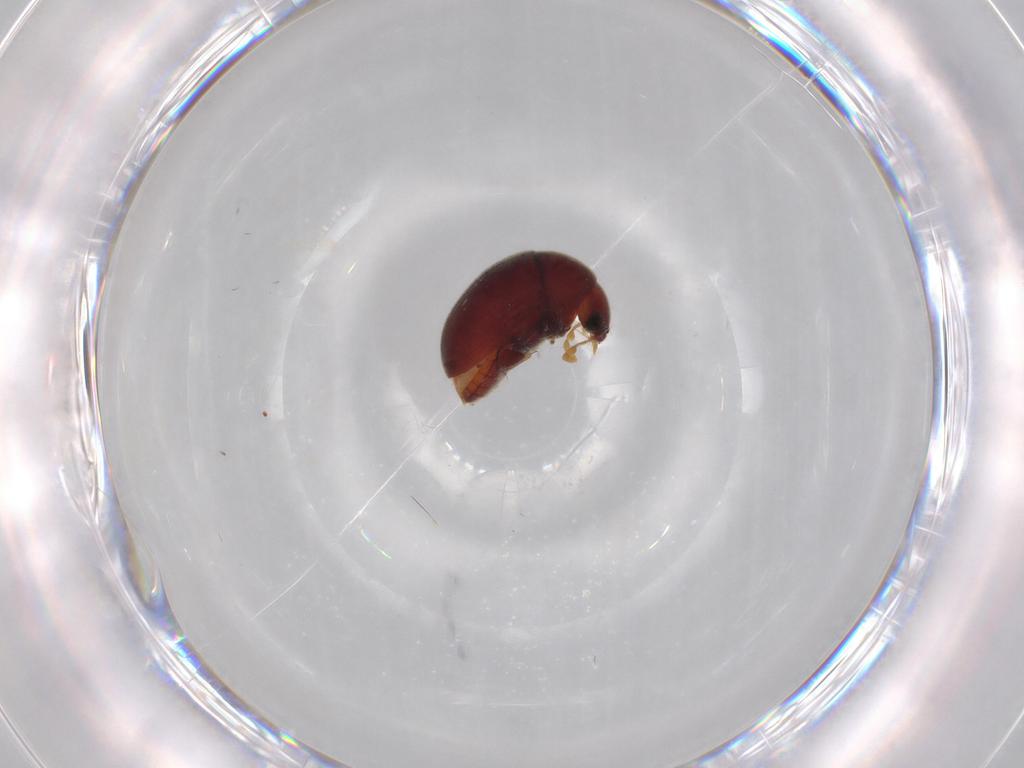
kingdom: Animalia
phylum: Arthropoda
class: Insecta
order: Coleoptera
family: Ptinidae
